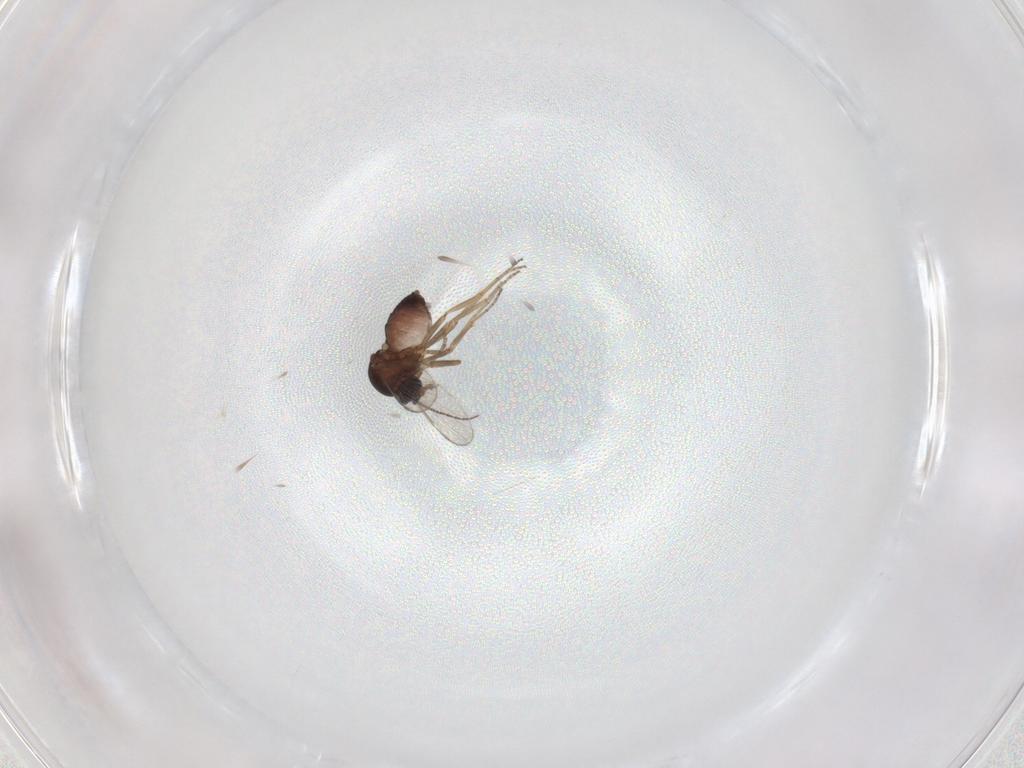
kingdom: Animalia
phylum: Arthropoda
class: Insecta
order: Diptera
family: Ceratopogonidae
